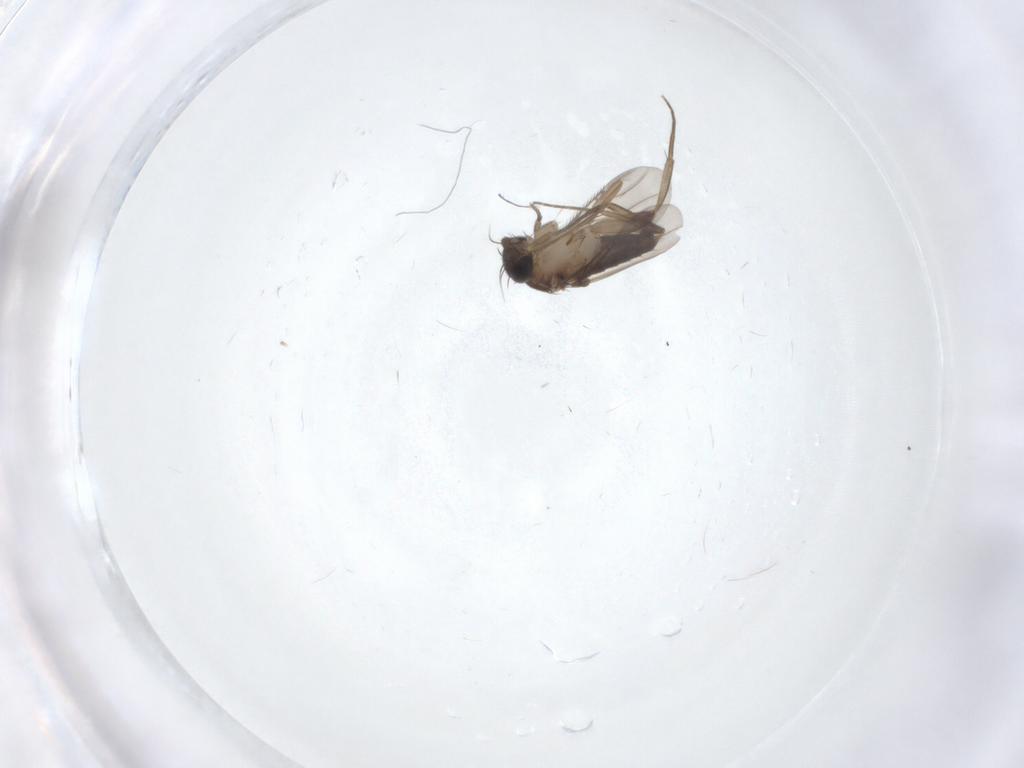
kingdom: Animalia
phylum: Arthropoda
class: Insecta
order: Diptera
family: Phoridae
